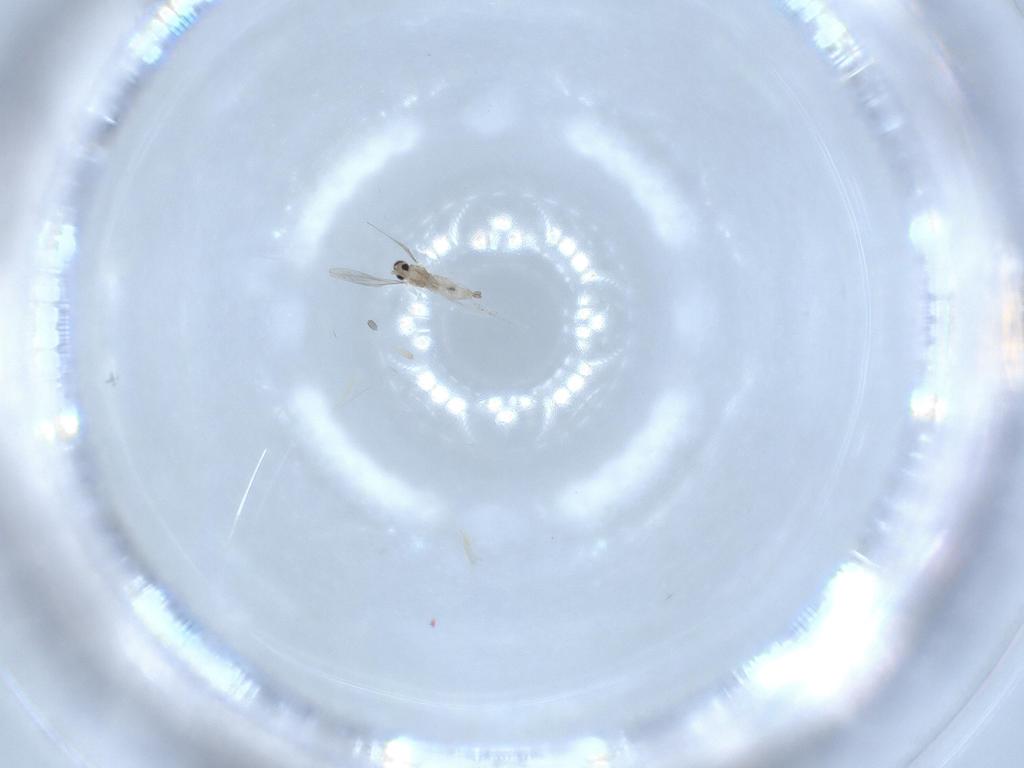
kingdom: Animalia
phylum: Arthropoda
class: Insecta
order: Diptera
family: Cecidomyiidae
